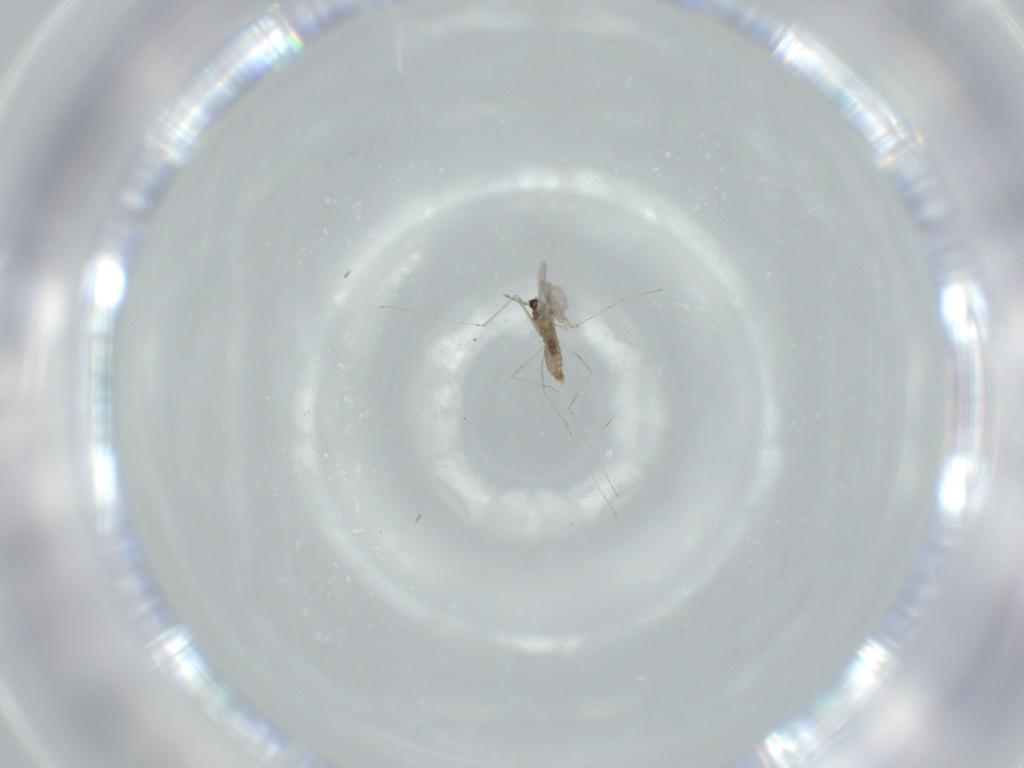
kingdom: Animalia
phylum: Arthropoda
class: Insecta
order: Diptera
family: Cecidomyiidae
